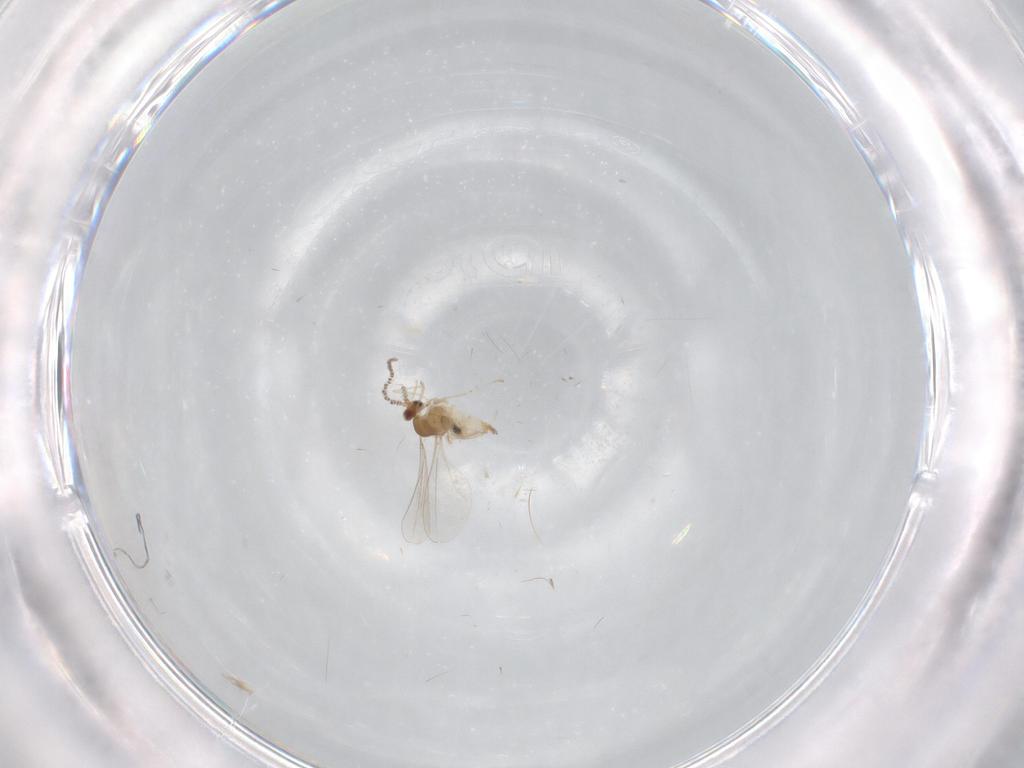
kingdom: Animalia
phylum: Arthropoda
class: Insecta
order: Diptera
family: Cecidomyiidae
